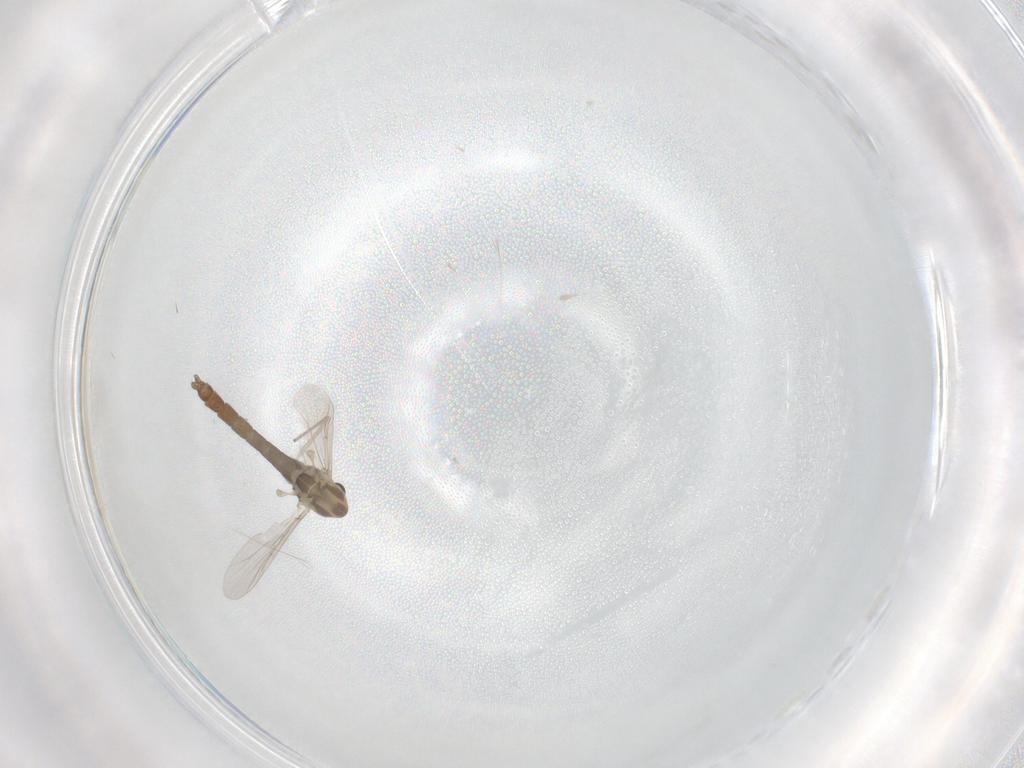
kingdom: Animalia
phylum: Arthropoda
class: Insecta
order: Diptera
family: Chironomidae
